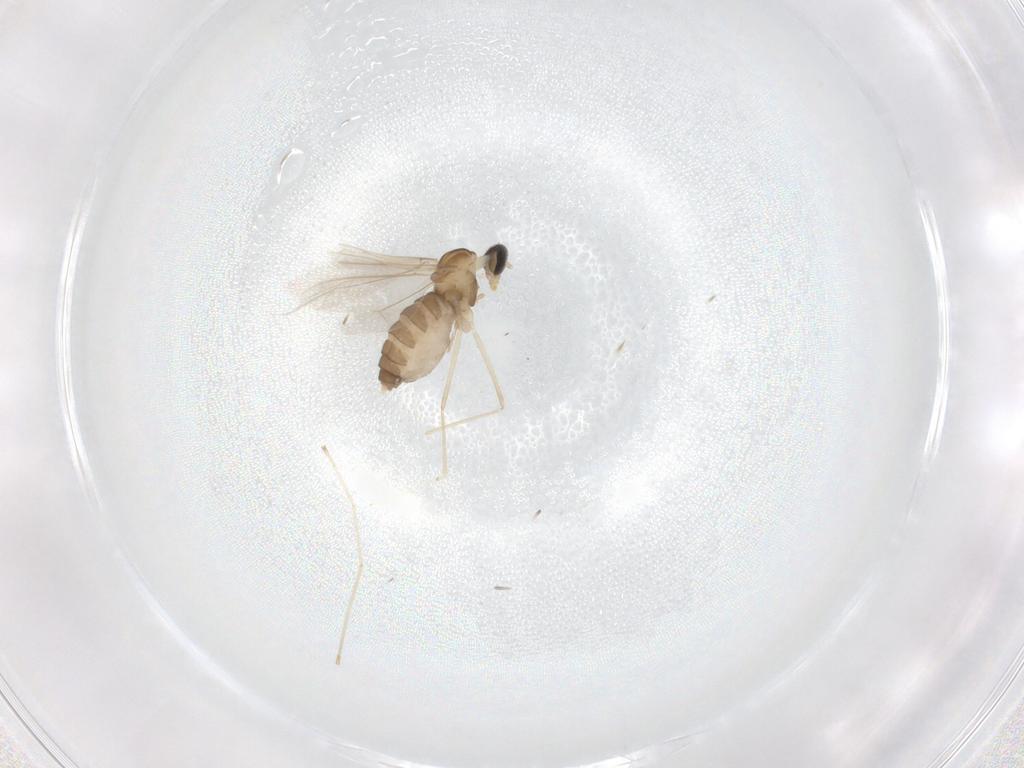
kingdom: Animalia
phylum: Arthropoda
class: Insecta
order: Diptera
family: Cecidomyiidae
